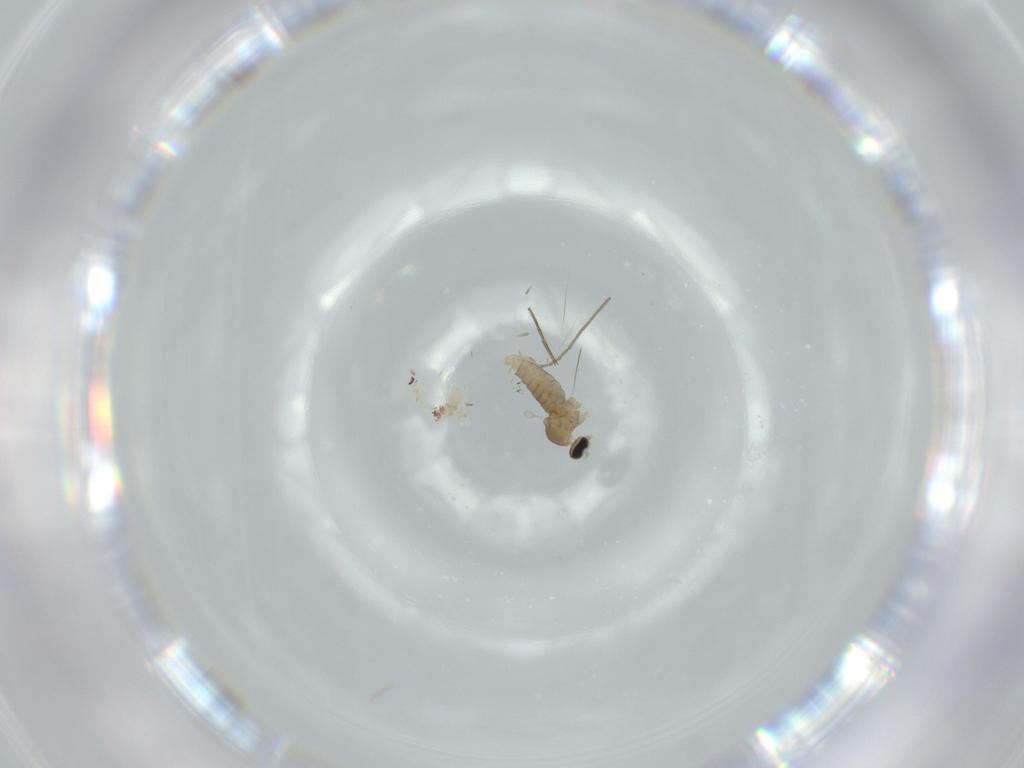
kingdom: Animalia
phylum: Arthropoda
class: Insecta
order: Diptera
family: Cecidomyiidae
